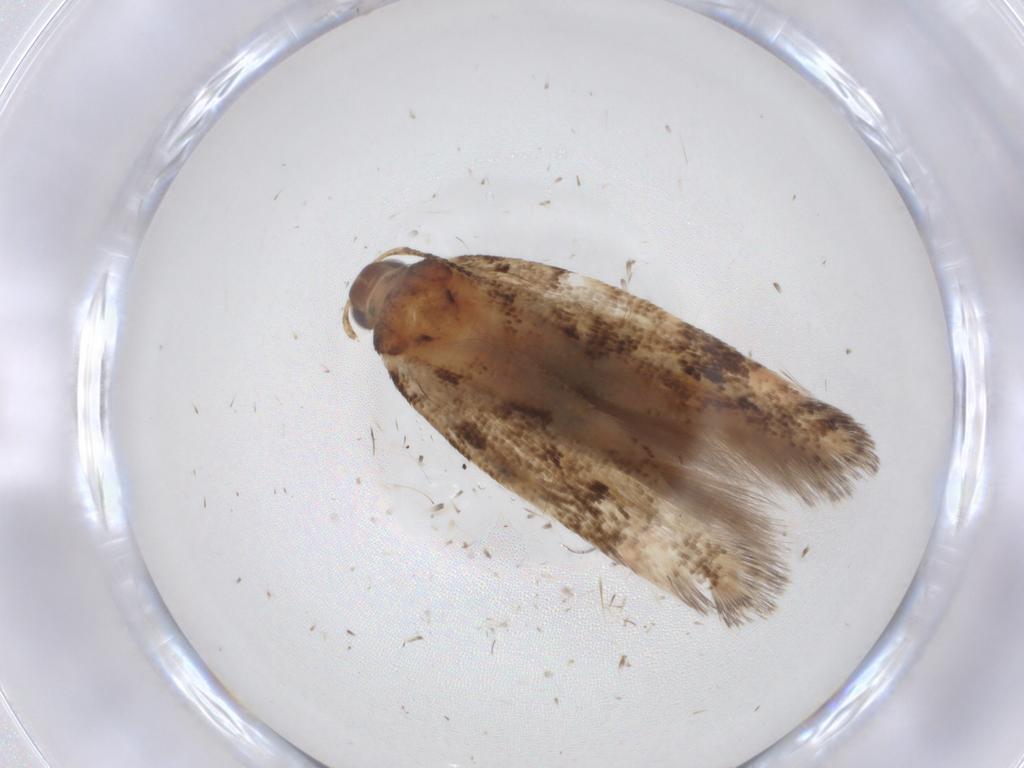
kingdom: Animalia
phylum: Arthropoda
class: Insecta
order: Lepidoptera
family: Gelechiidae
